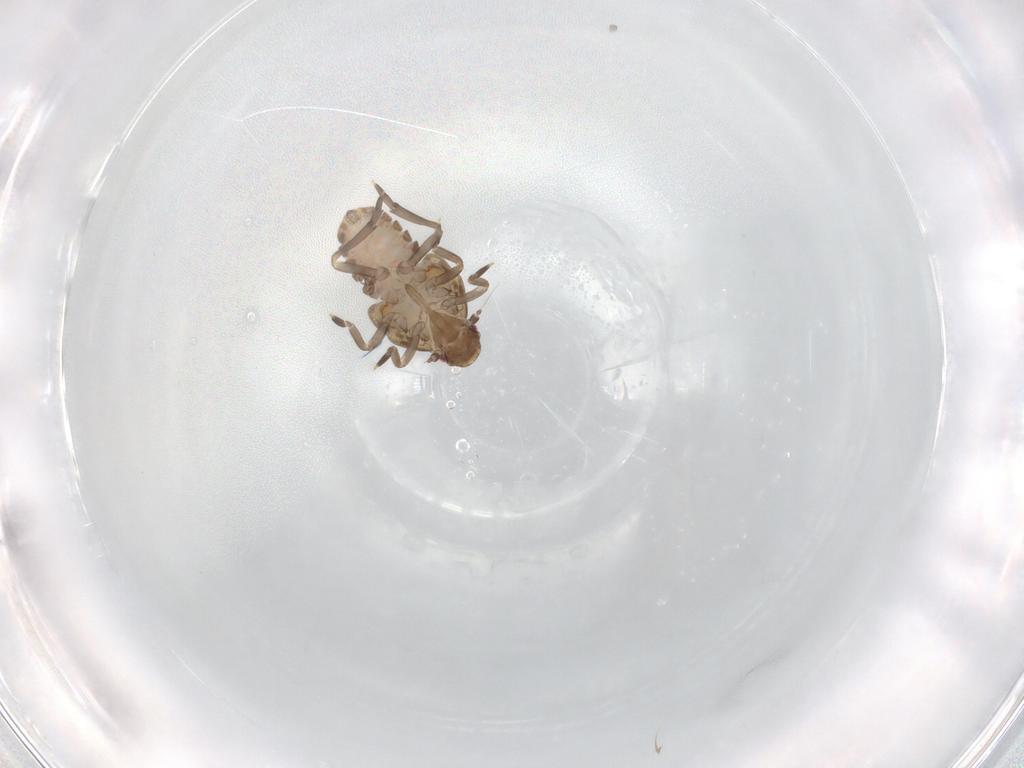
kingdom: Animalia
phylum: Arthropoda
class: Insecta
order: Hemiptera
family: Flatidae
